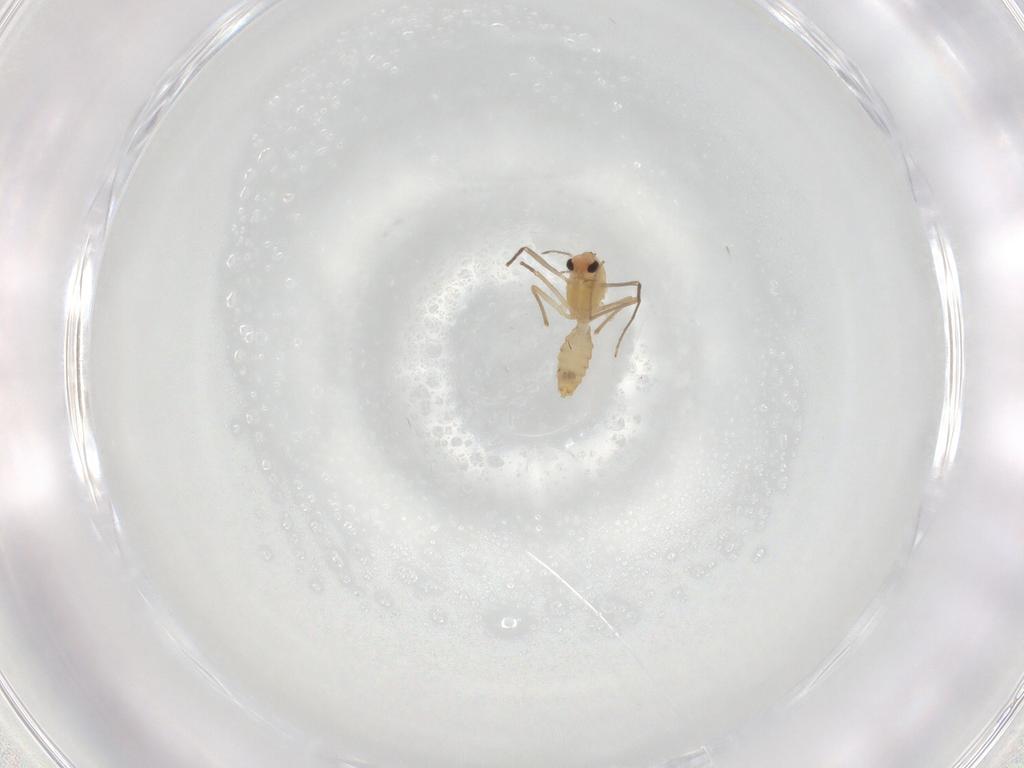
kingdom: Animalia
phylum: Arthropoda
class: Insecta
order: Diptera
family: Chironomidae
